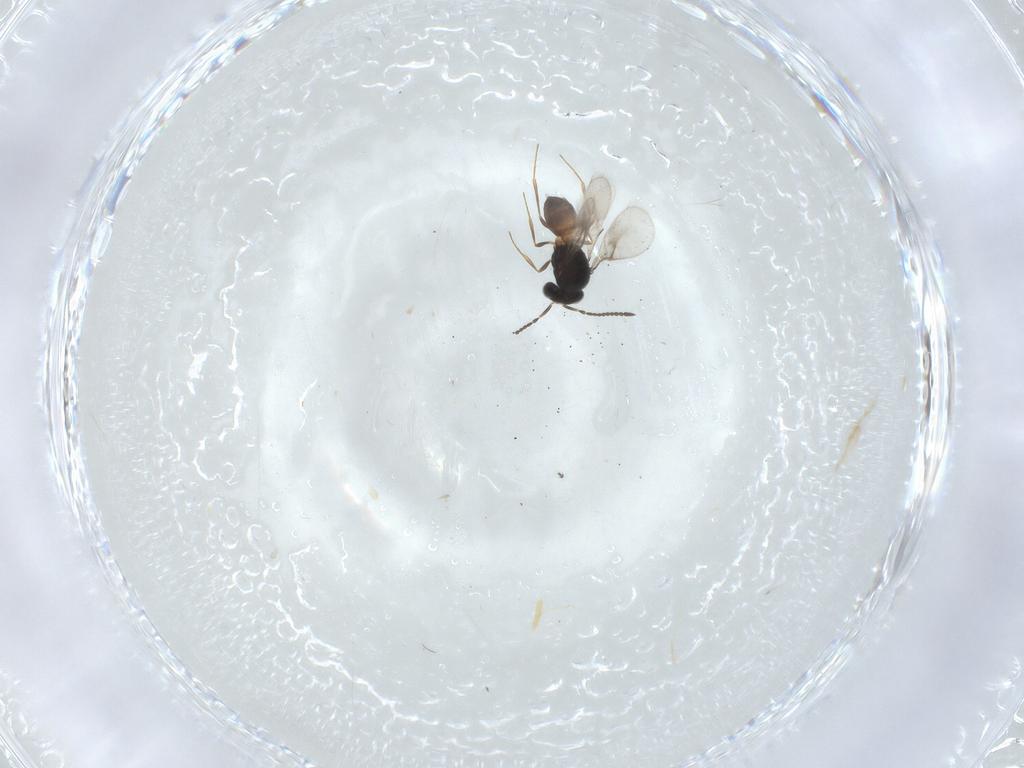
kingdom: Animalia
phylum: Arthropoda
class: Insecta
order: Hymenoptera
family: Scelionidae
